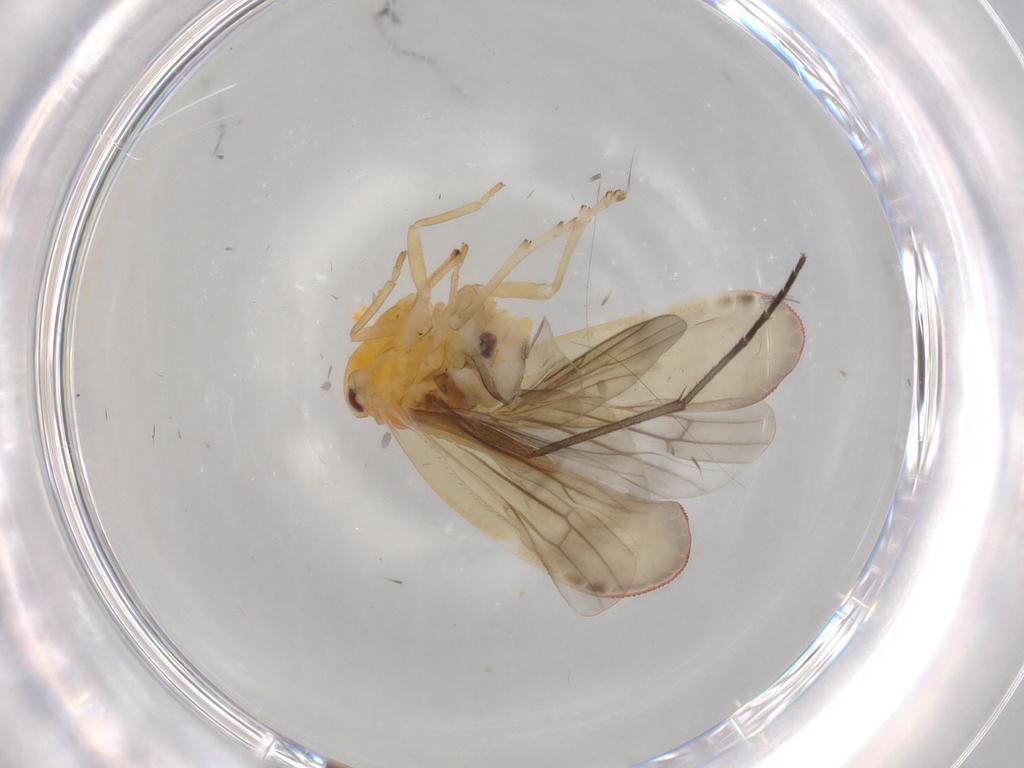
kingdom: Animalia
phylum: Arthropoda
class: Insecta
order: Hemiptera
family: Derbidae
